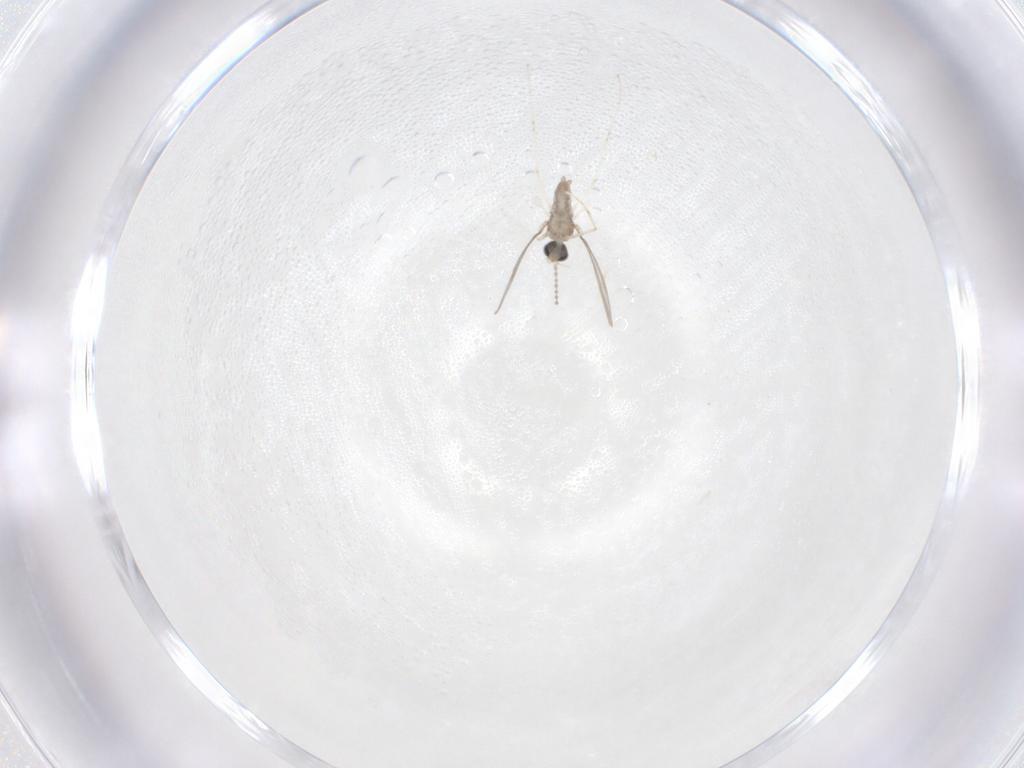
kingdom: Animalia
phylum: Arthropoda
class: Insecta
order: Diptera
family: Cecidomyiidae
